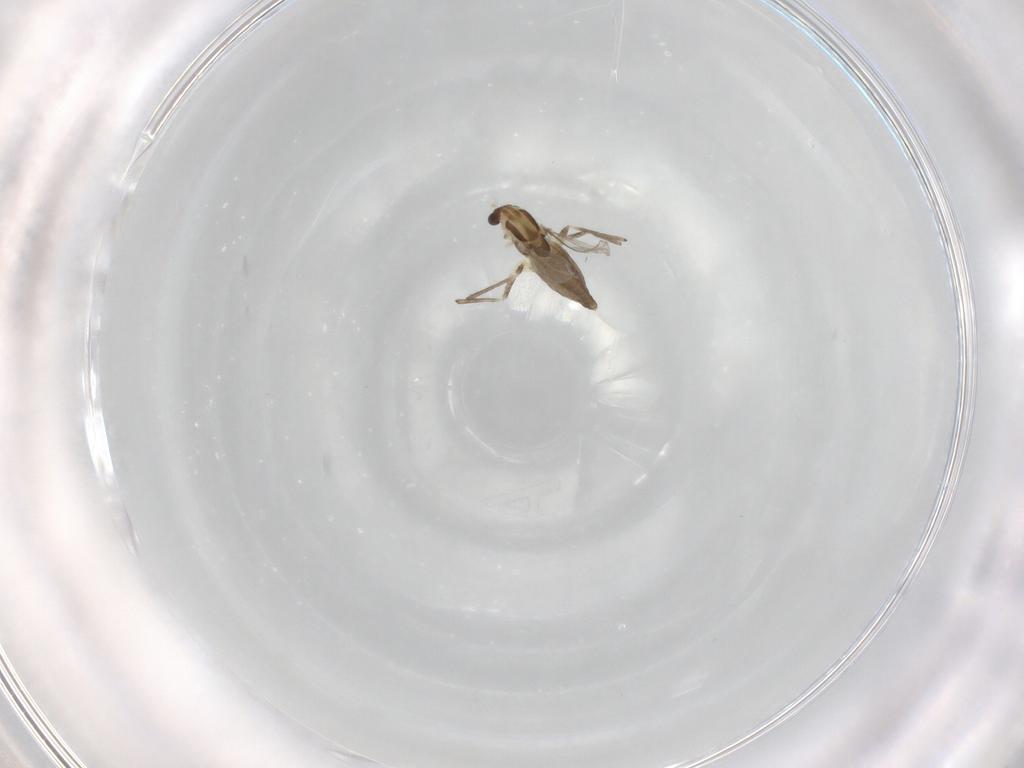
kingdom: Animalia
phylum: Arthropoda
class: Insecta
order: Diptera
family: Chironomidae
